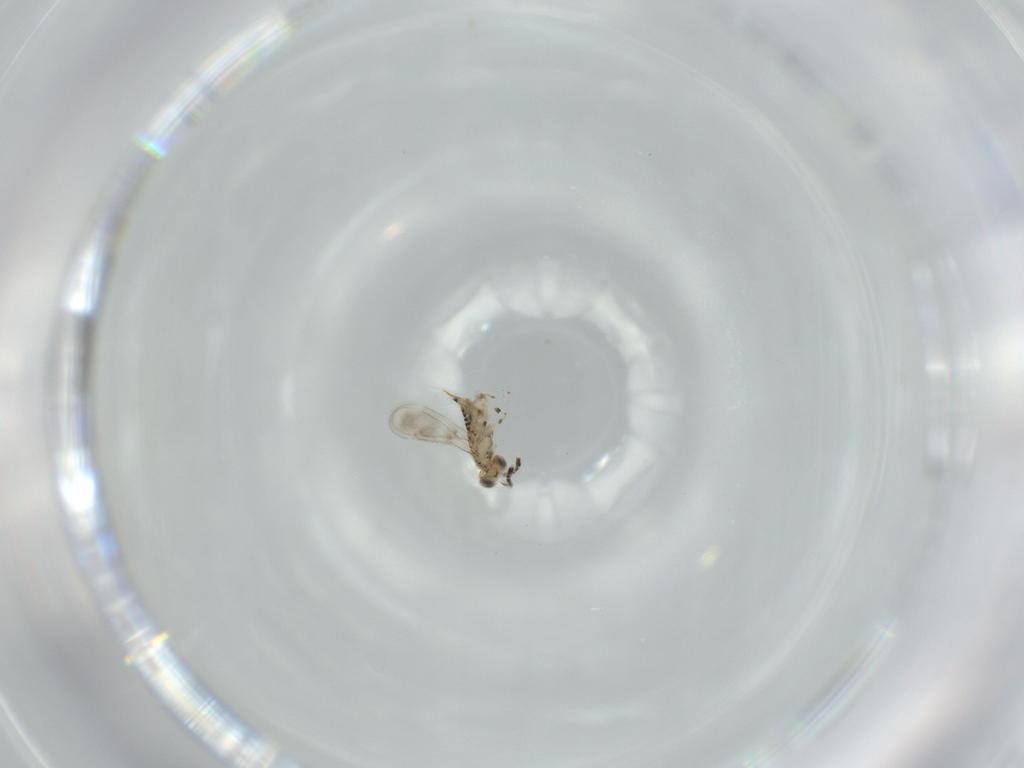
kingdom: Animalia
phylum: Arthropoda
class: Insecta
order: Hymenoptera
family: Aphelinidae
